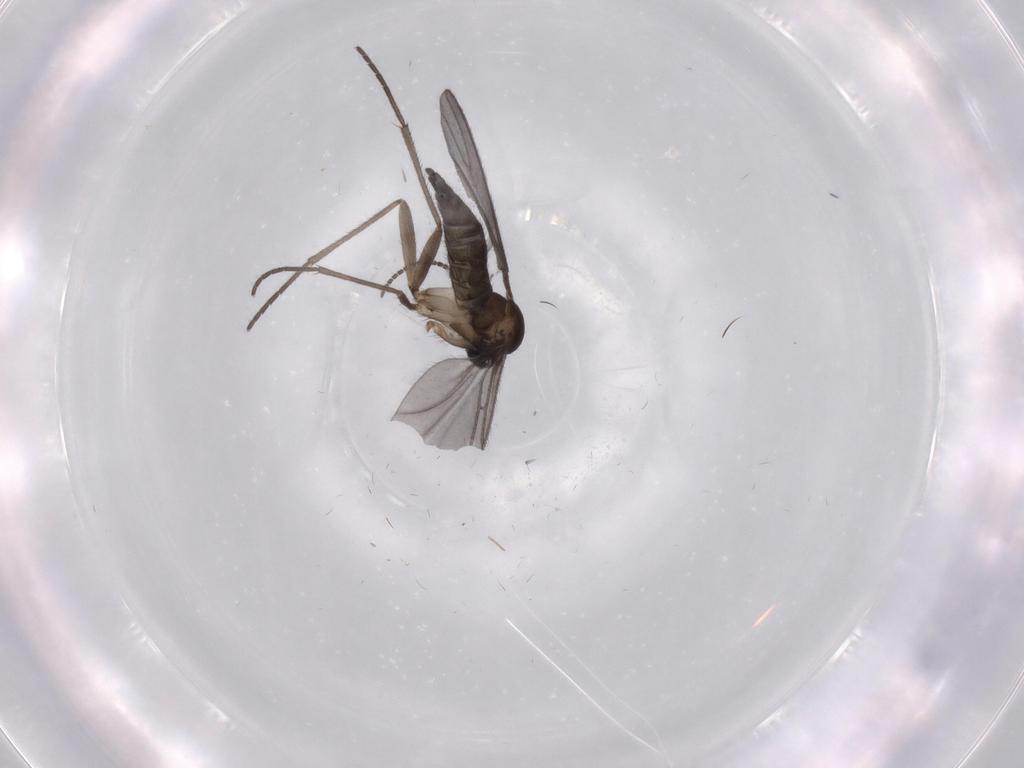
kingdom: Animalia
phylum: Arthropoda
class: Insecta
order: Diptera
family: Sciaridae
